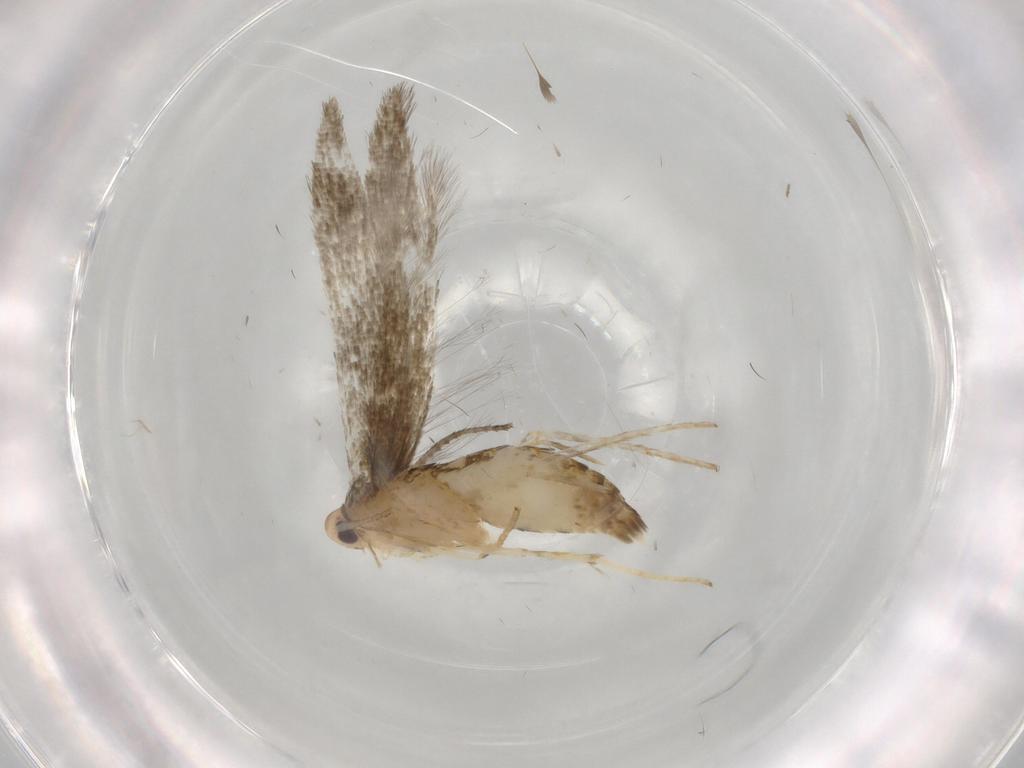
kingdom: Animalia
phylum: Arthropoda
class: Insecta
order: Lepidoptera
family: Stathmopodidae
